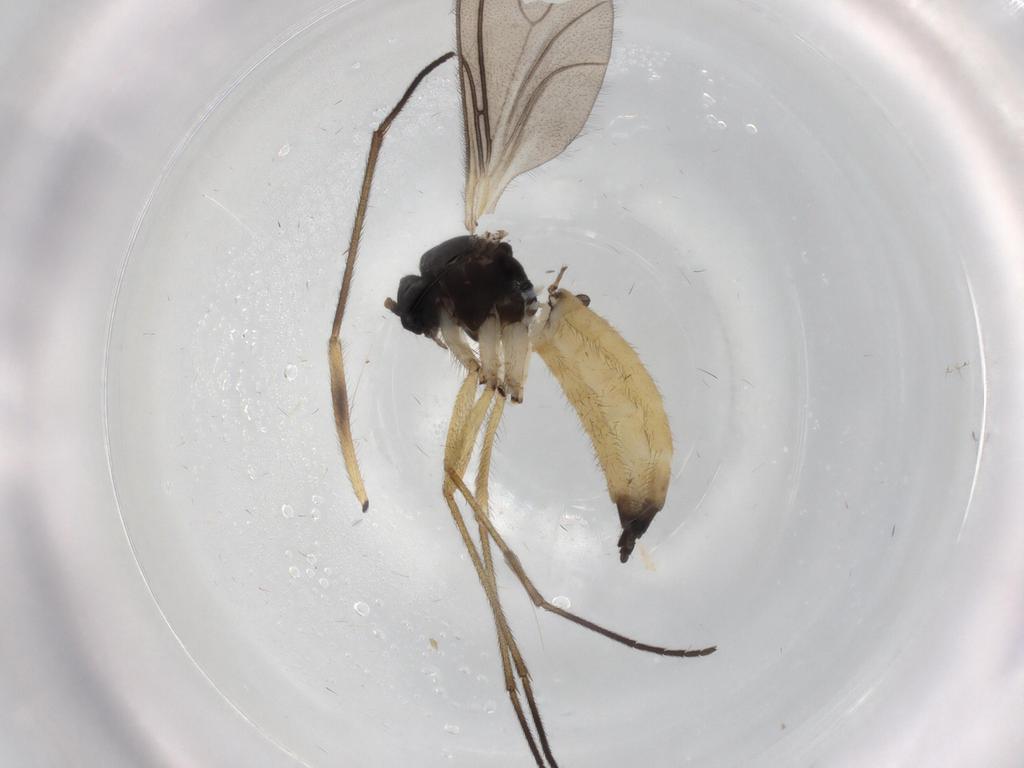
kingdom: Animalia
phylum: Arthropoda
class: Insecta
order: Diptera
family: Sciaridae
